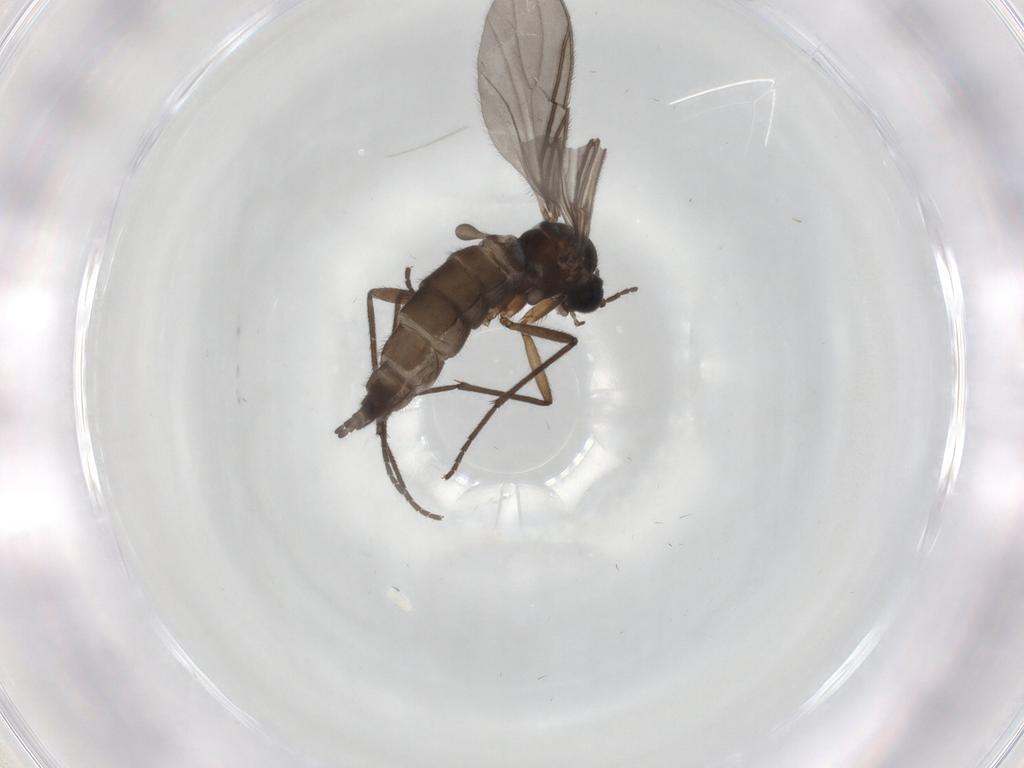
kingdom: Animalia
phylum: Arthropoda
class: Insecta
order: Diptera
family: Sciaridae
